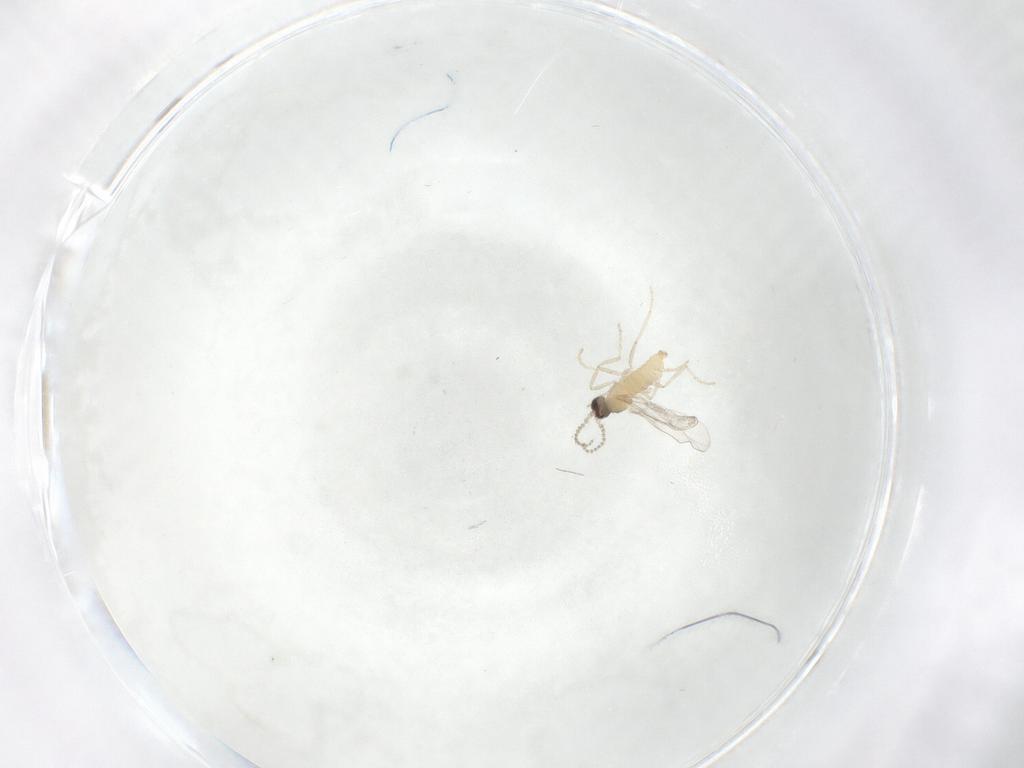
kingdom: Animalia
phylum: Arthropoda
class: Insecta
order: Diptera
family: Cecidomyiidae
